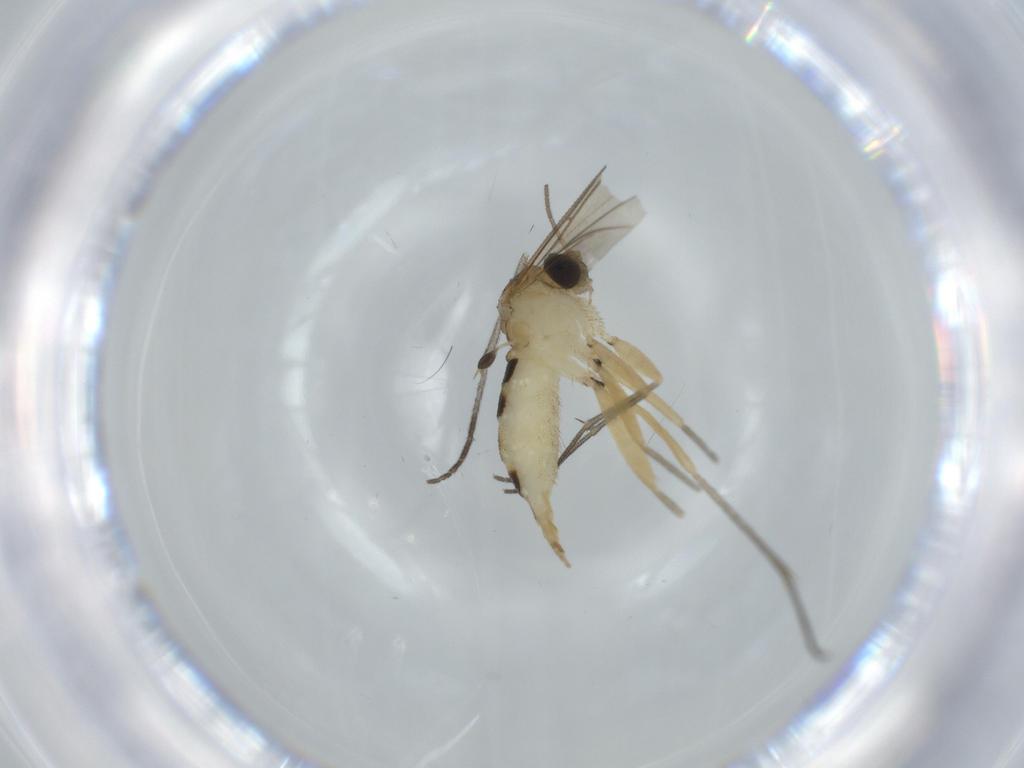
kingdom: Animalia
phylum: Arthropoda
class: Insecta
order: Diptera
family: Sciaridae
